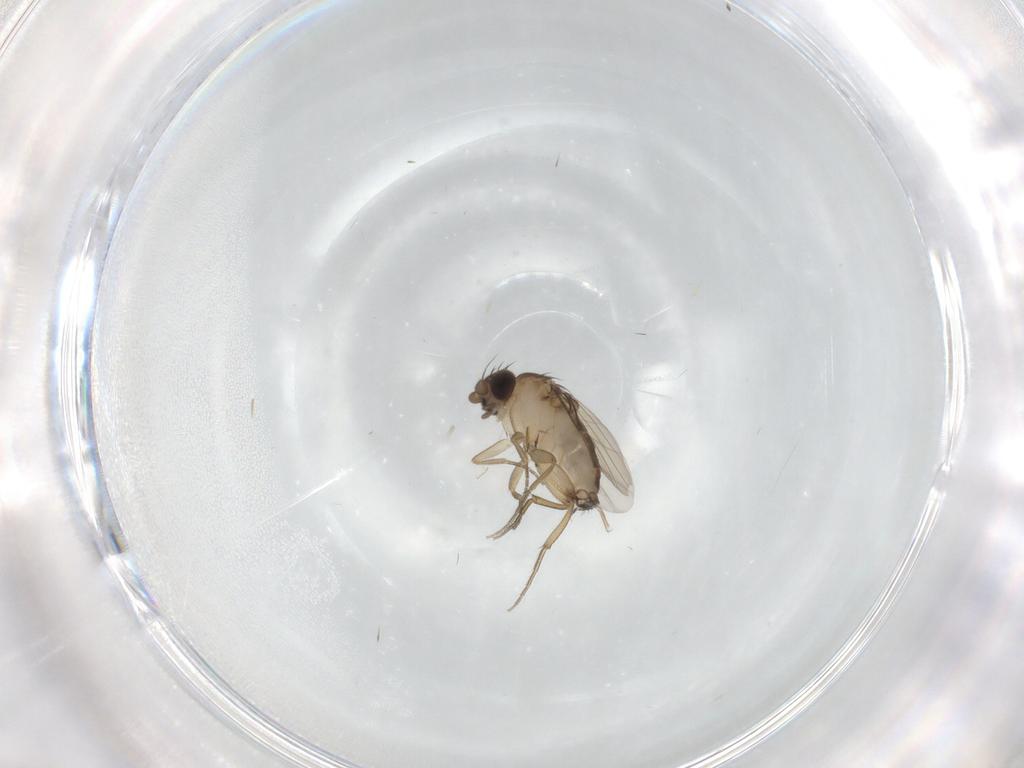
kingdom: Animalia
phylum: Arthropoda
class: Insecta
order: Diptera
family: Phoridae
